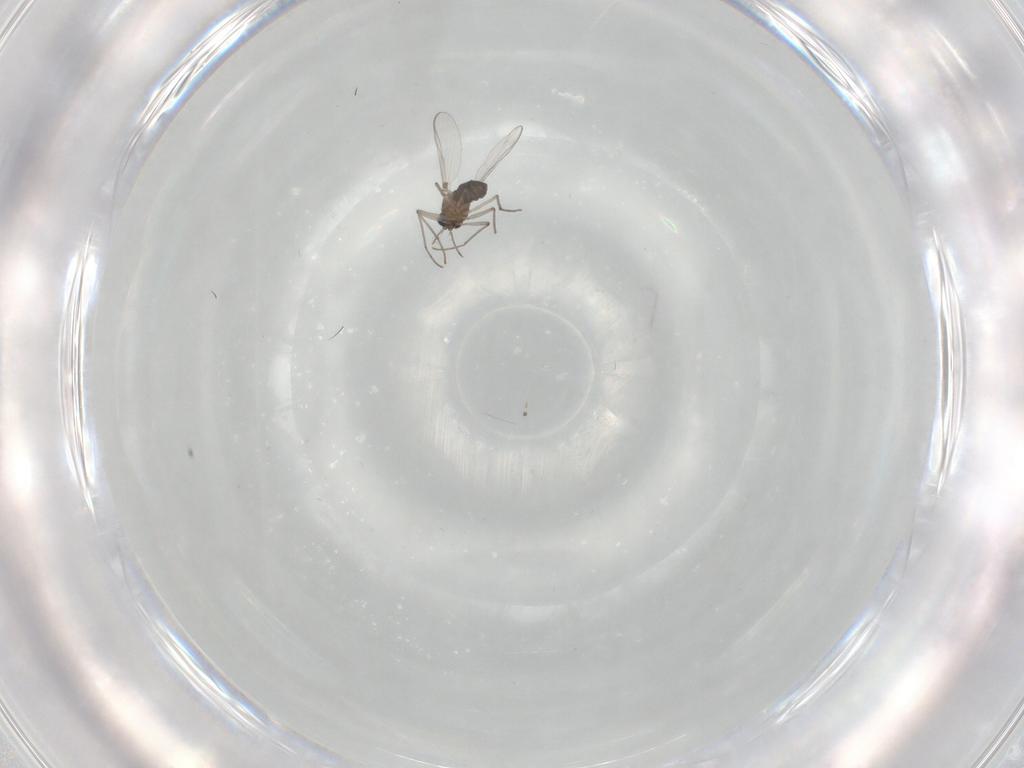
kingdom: Animalia
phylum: Arthropoda
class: Insecta
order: Diptera
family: Chironomidae
